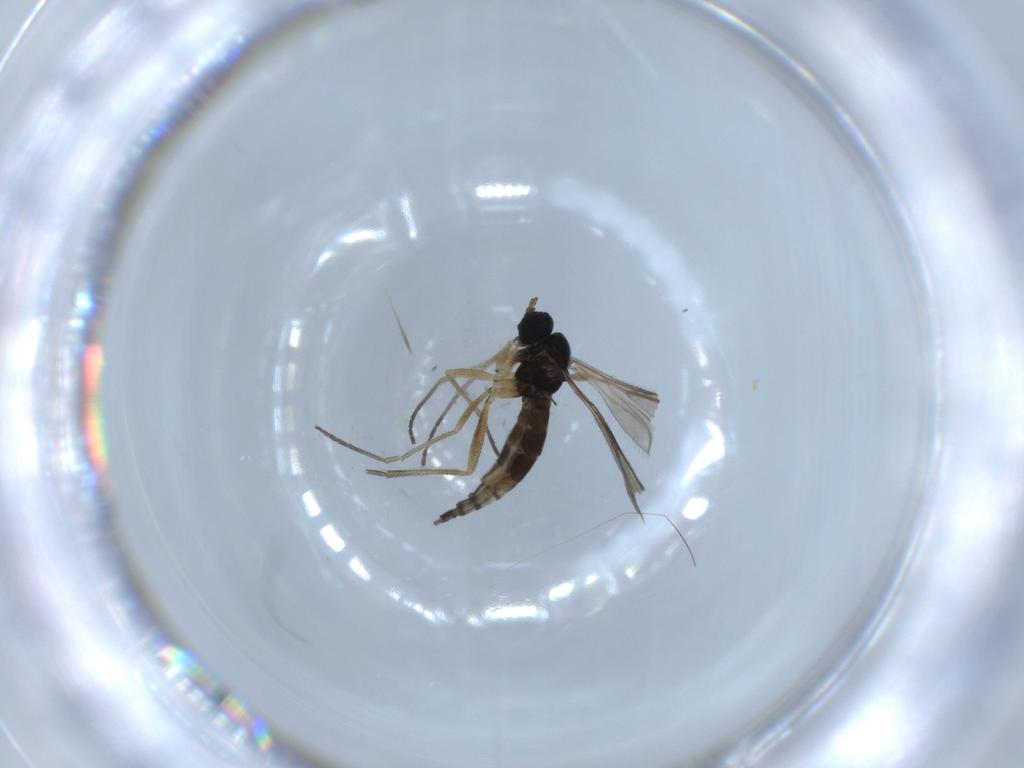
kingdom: Animalia
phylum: Arthropoda
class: Insecta
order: Diptera
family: Sciaridae
